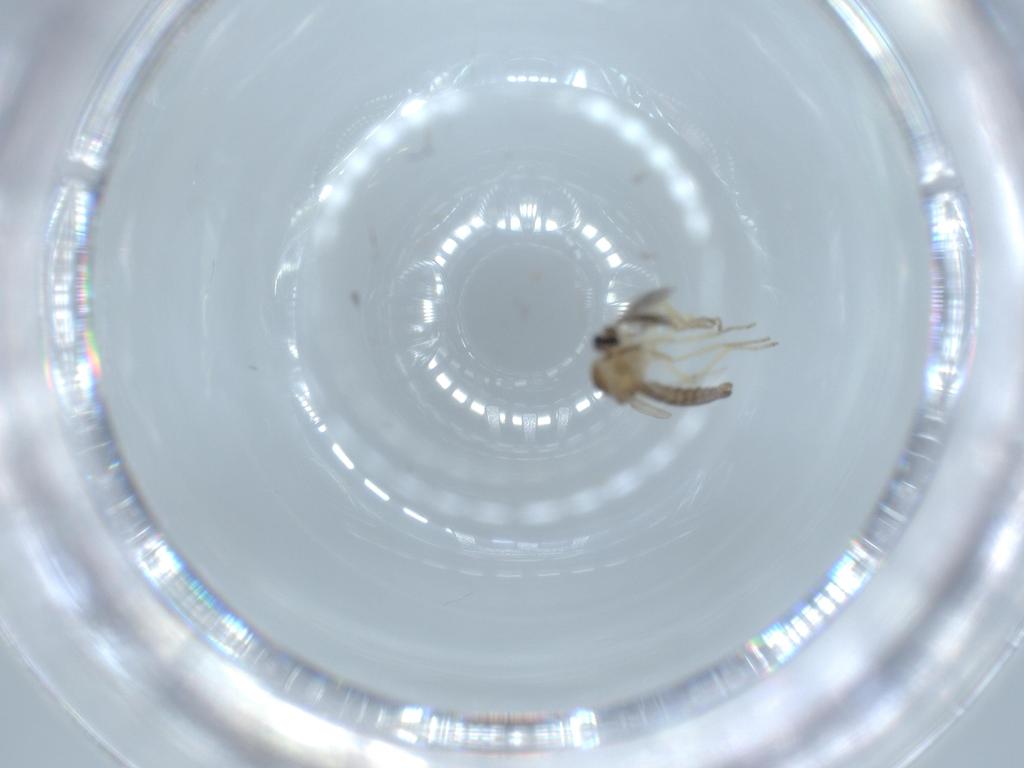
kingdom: Animalia
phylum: Arthropoda
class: Insecta
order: Diptera
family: Ceratopogonidae
